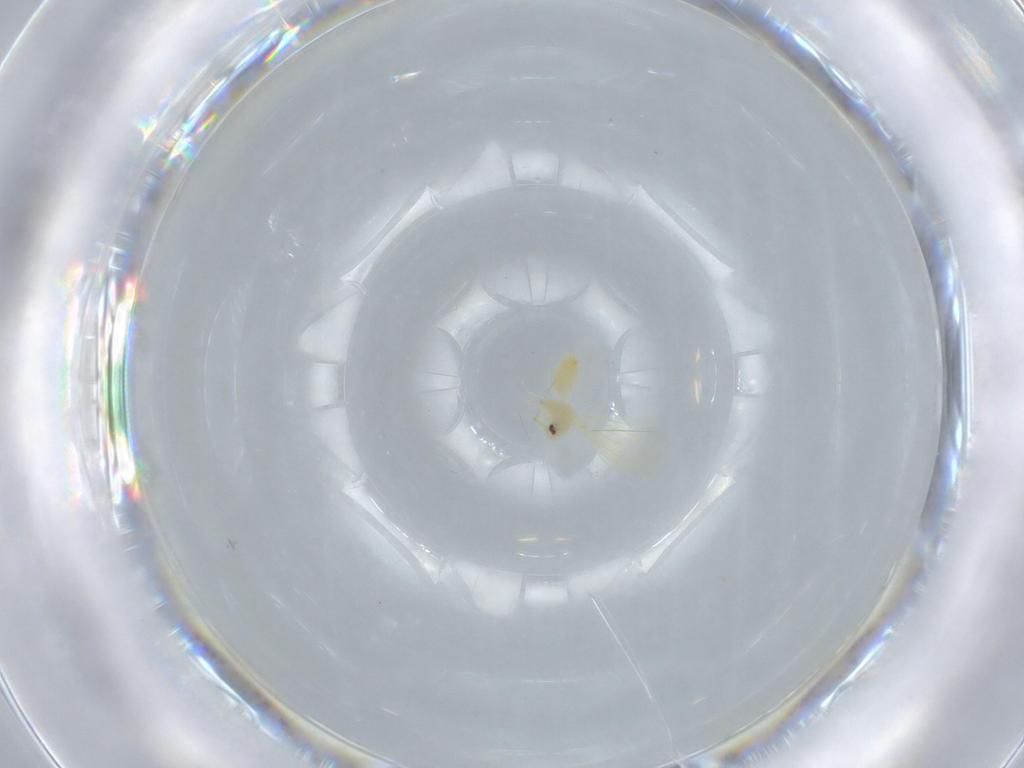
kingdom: Animalia
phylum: Arthropoda
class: Insecta
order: Hemiptera
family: Aleyrodidae
